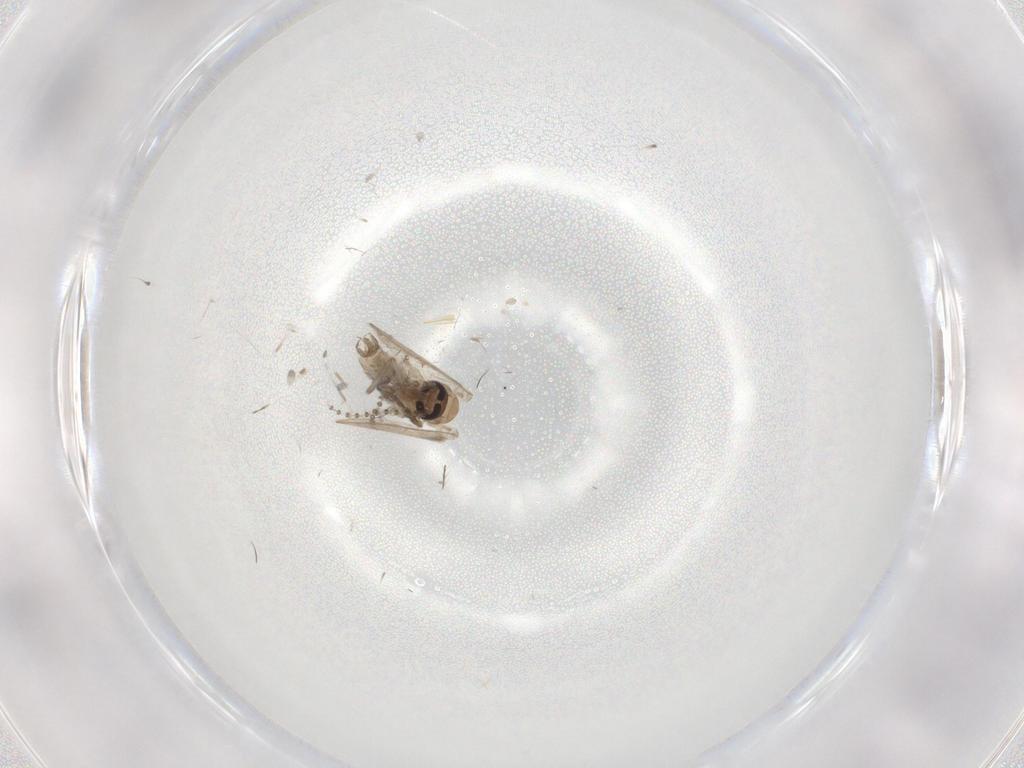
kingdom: Animalia
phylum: Arthropoda
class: Insecta
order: Diptera
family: Psychodidae
